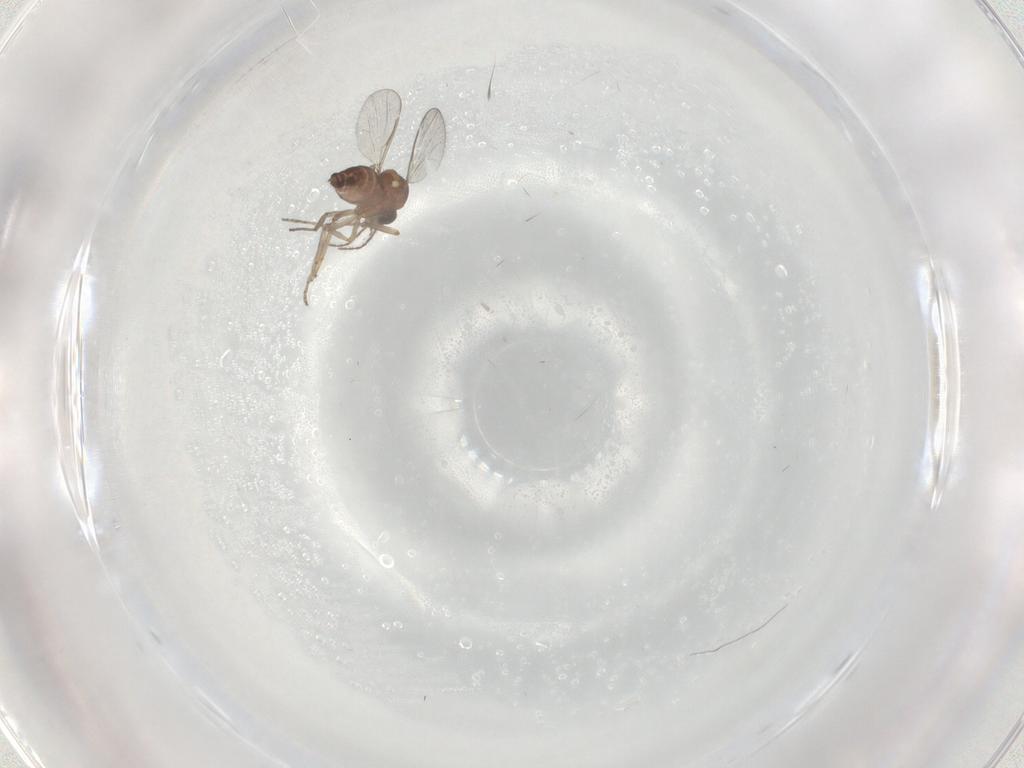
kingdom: Animalia
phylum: Arthropoda
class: Insecta
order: Diptera
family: Ceratopogonidae
